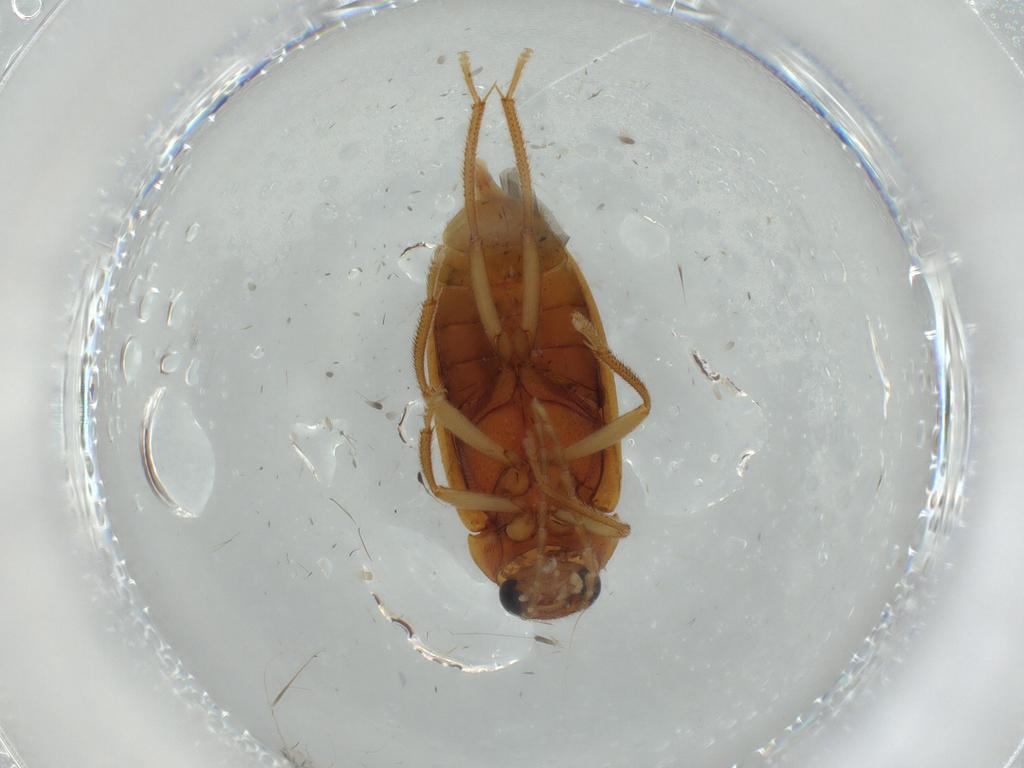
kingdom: Animalia
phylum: Arthropoda
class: Insecta
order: Coleoptera
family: Ptilodactylidae
